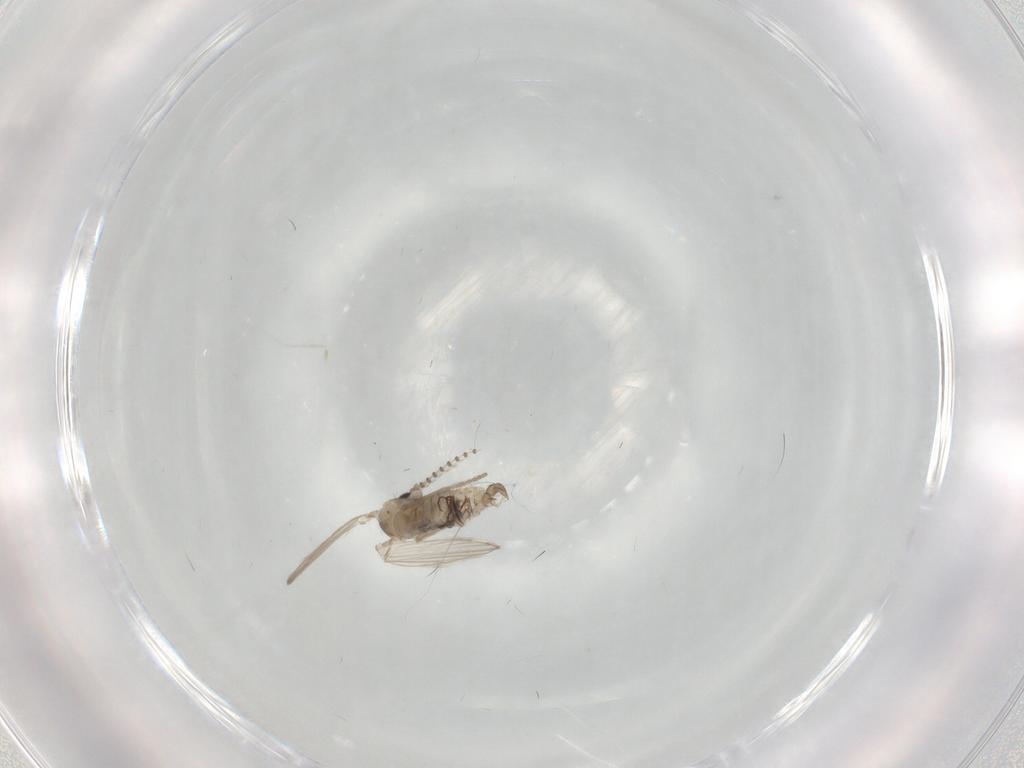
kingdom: Animalia
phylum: Arthropoda
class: Insecta
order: Diptera
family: Psychodidae
